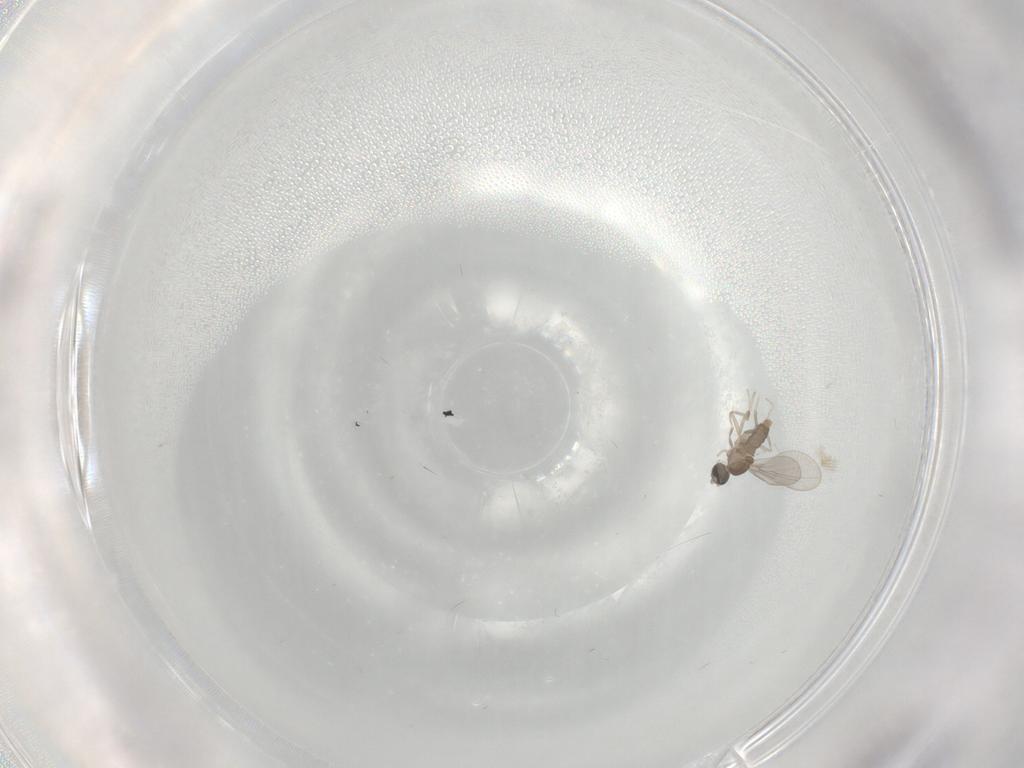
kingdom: Animalia
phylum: Arthropoda
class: Insecta
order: Diptera
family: Cecidomyiidae
